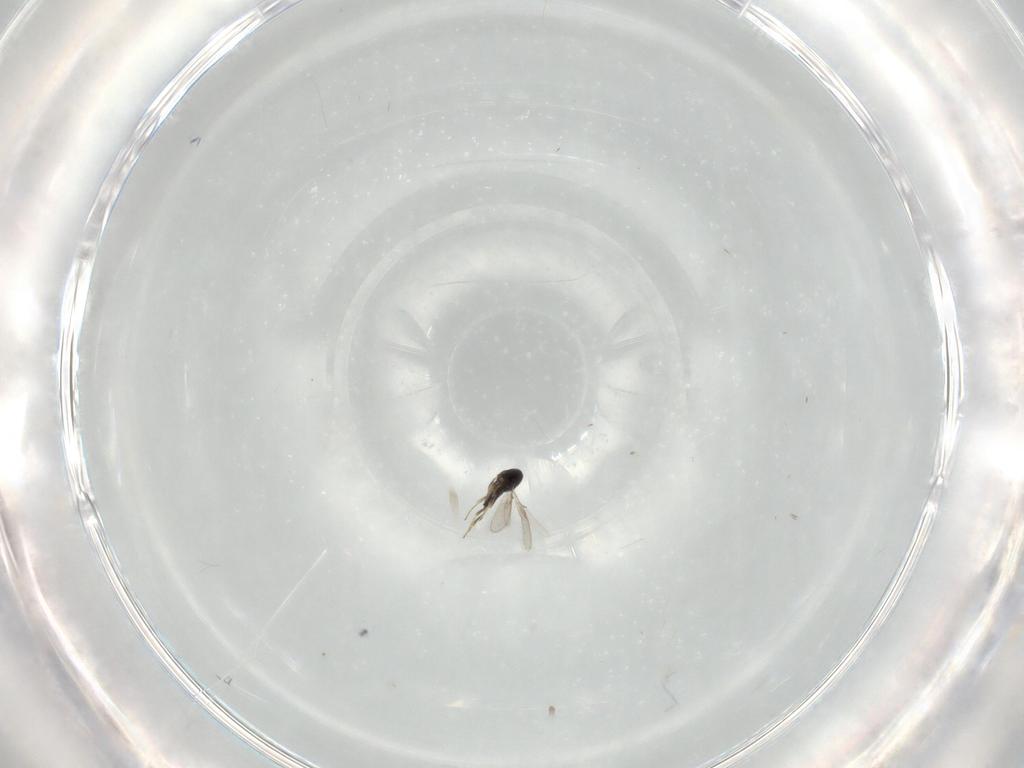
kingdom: Animalia
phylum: Arthropoda
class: Insecta
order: Hymenoptera
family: Scelionidae
